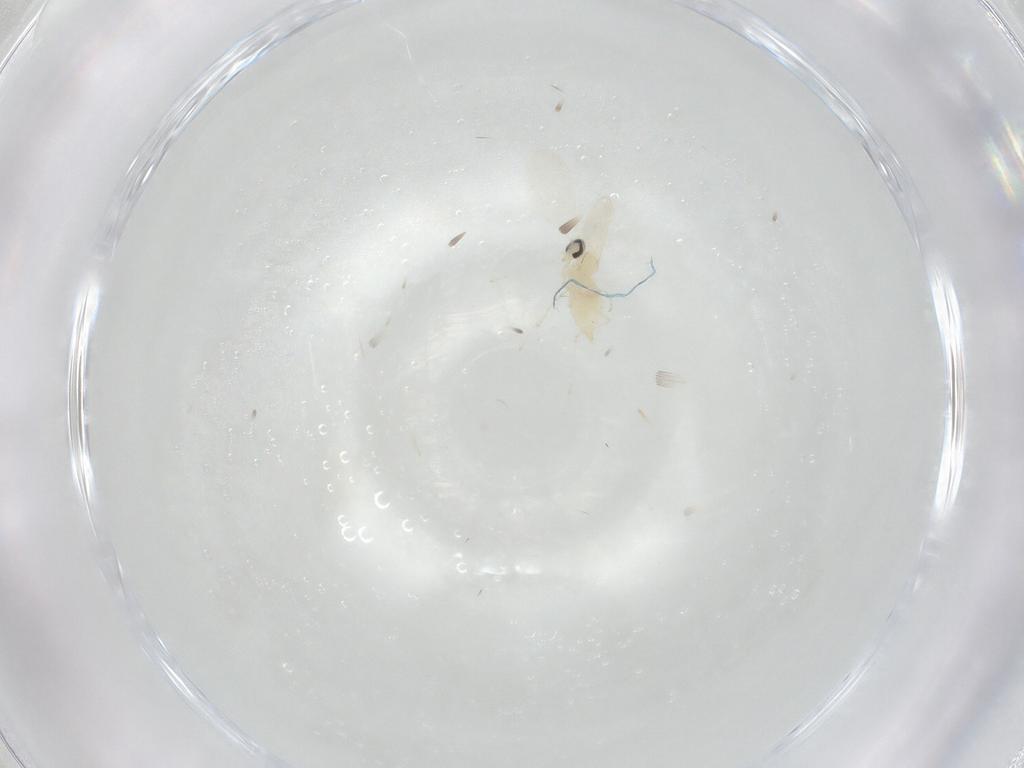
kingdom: Animalia
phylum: Arthropoda
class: Insecta
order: Diptera
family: Cecidomyiidae
